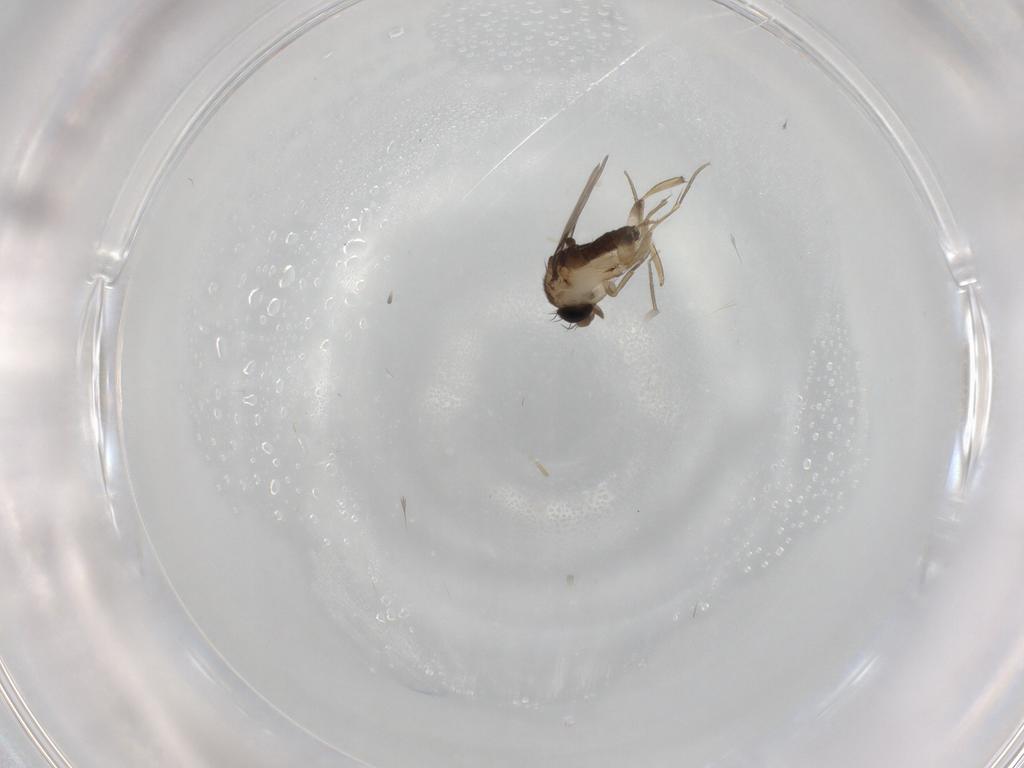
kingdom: Animalia
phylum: Arthropoda
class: Insecta
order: Diptera
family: Phoridae
